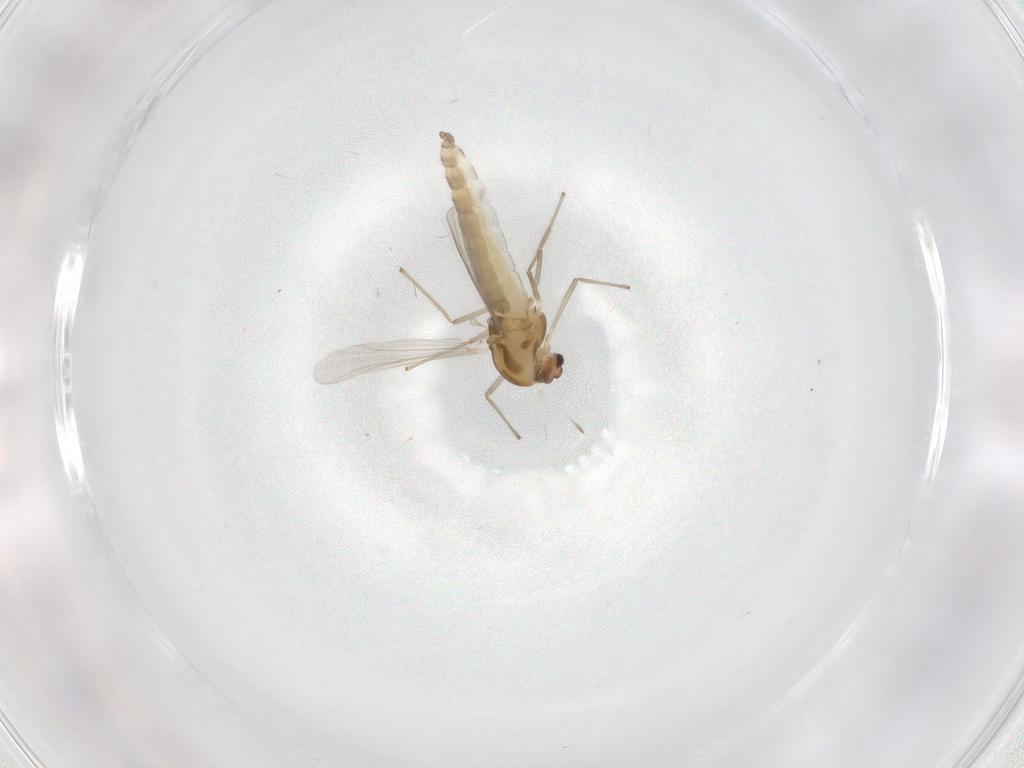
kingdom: Animalia
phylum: Arthropoda
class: Insecta
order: Diptera
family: Chironomidae
